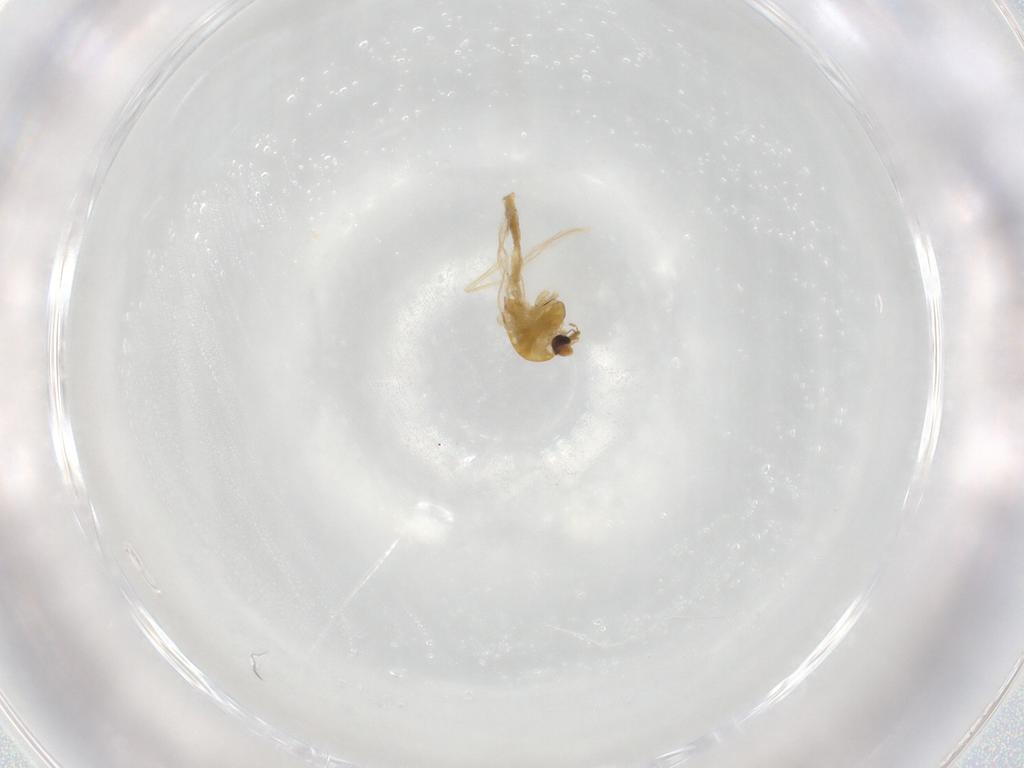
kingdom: Animalia
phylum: Arthropoda
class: Insecta
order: Diptera
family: Chironomidae
